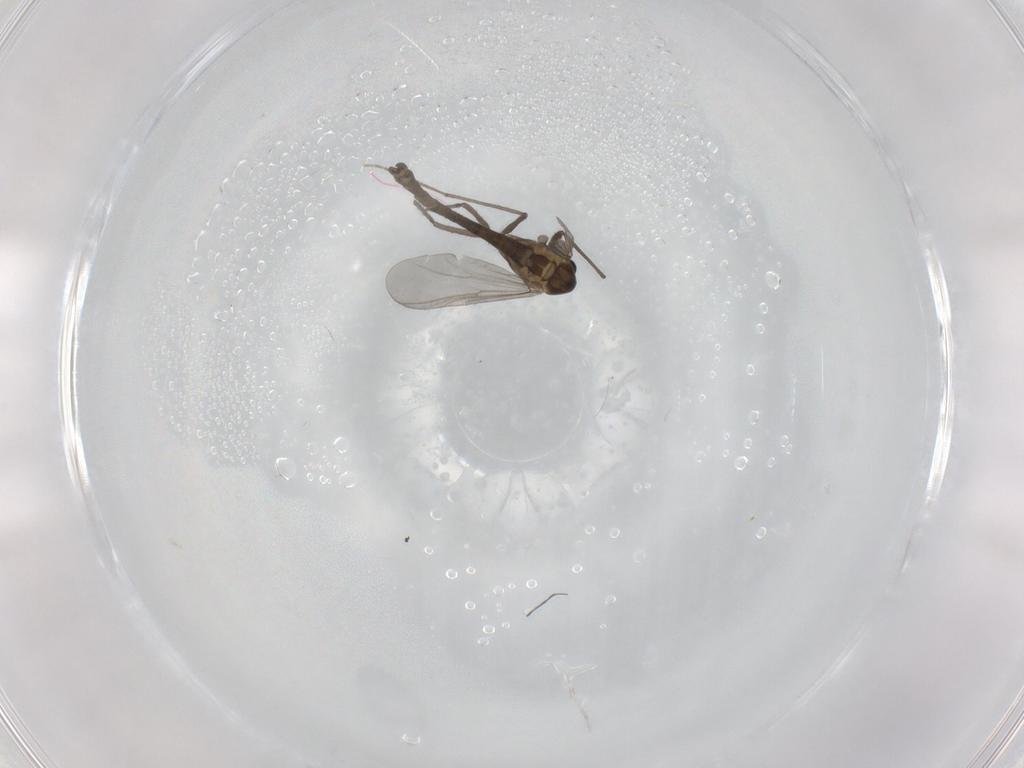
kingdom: Animalia
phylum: Arthropoda
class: Insecta
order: Diptera
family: Chironomidae
